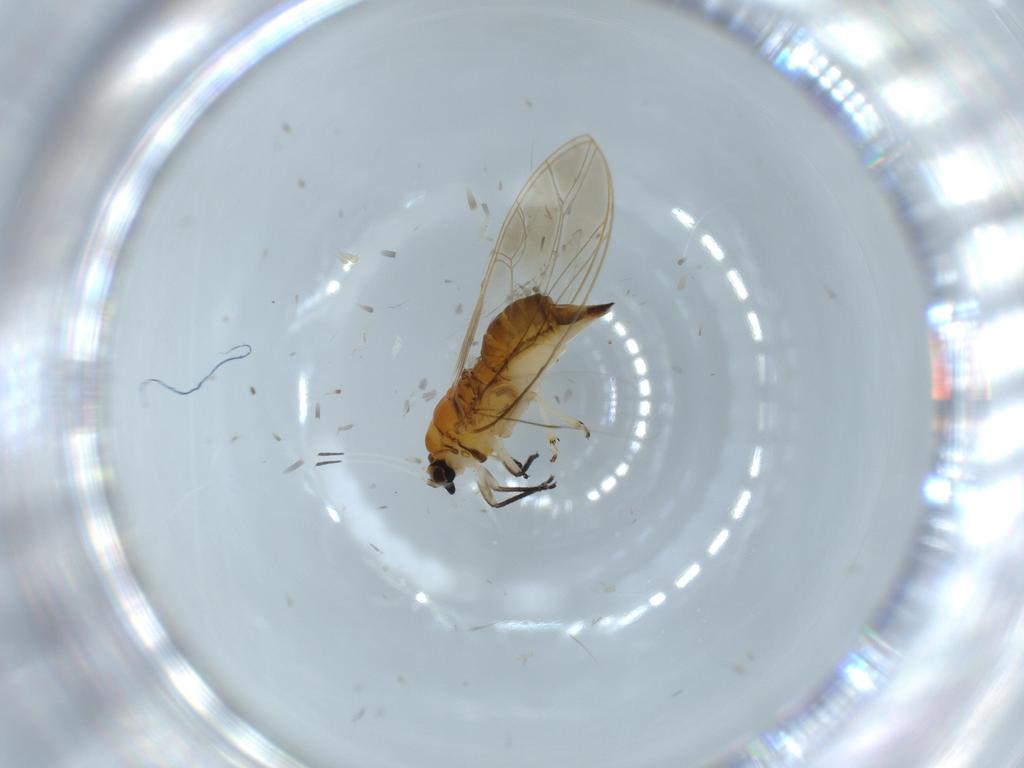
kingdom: Animalia
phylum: Arthropoda
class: Insecta
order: Hemiptera
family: Triozidae
